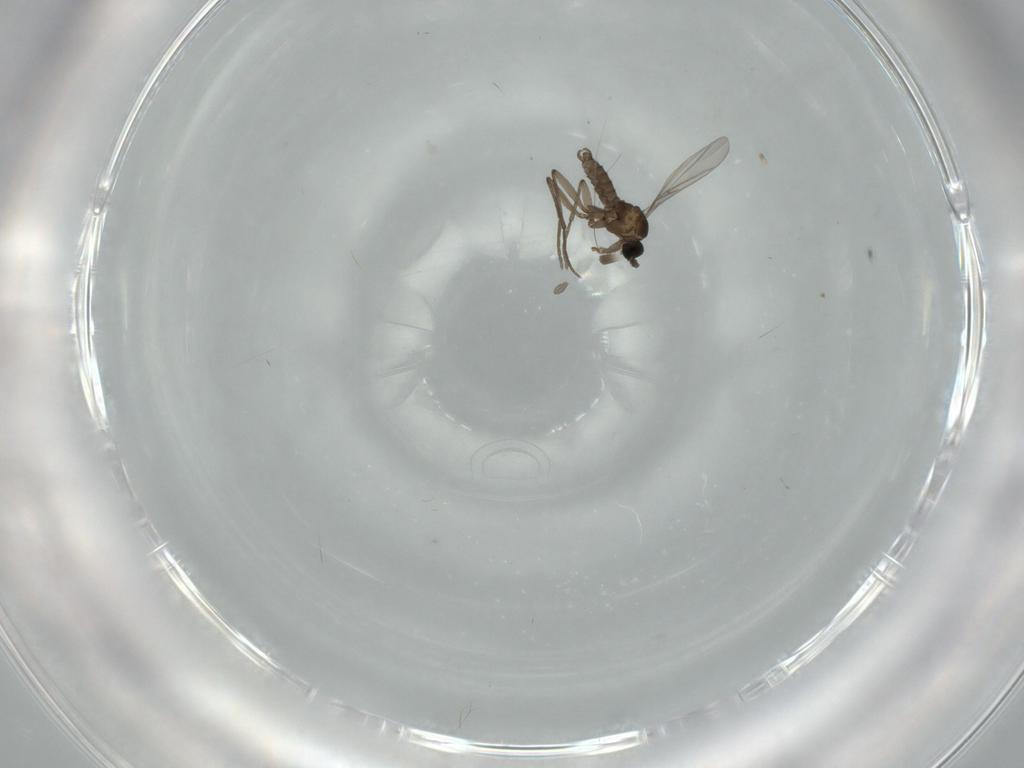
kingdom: Animalia
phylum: Arthropoda
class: Insecta
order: Diptera
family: Sciaridae
